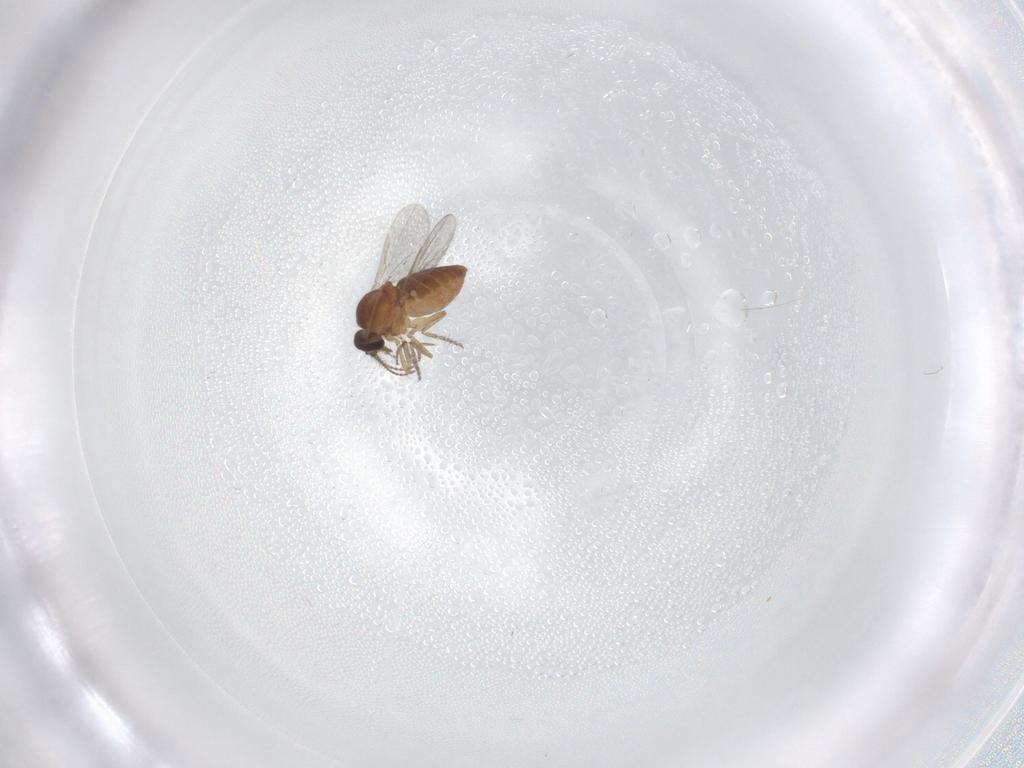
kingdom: Animalia
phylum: Arthropoda
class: Insecta
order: Diptera
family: Ceratopogonidae
